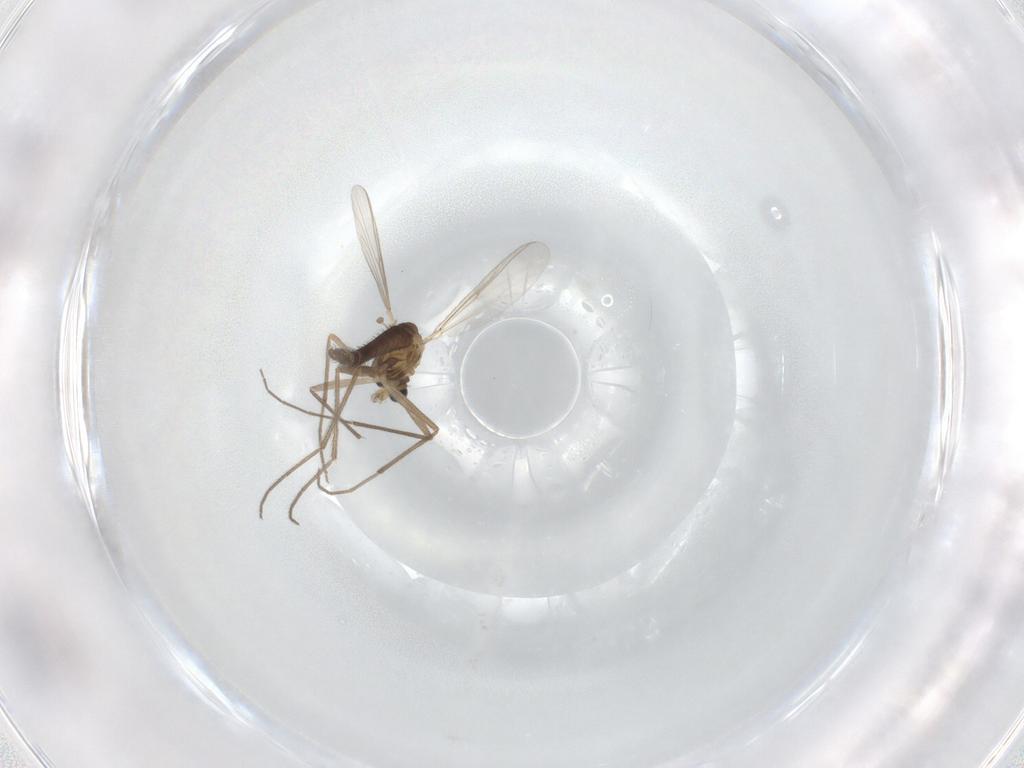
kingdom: Animalia
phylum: Arthropoda
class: Insecta
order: Diptera
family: Chironomidae
